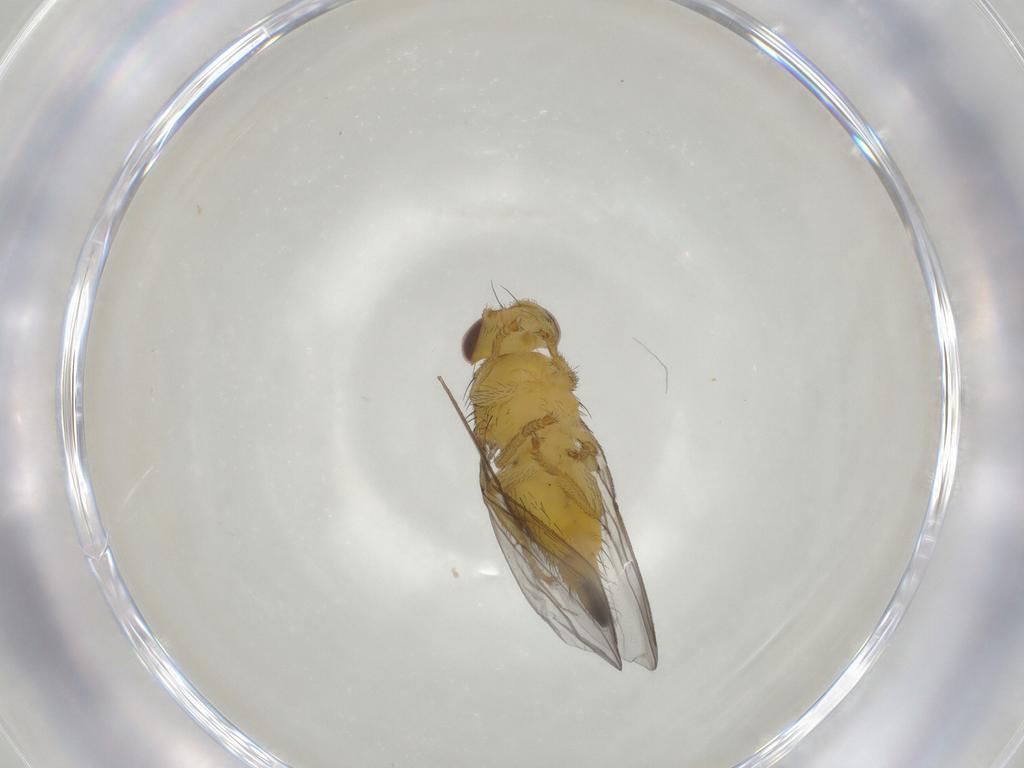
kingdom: Animalia
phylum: Arthropoda
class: Insecta
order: Diptera
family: Fergusoninidae
